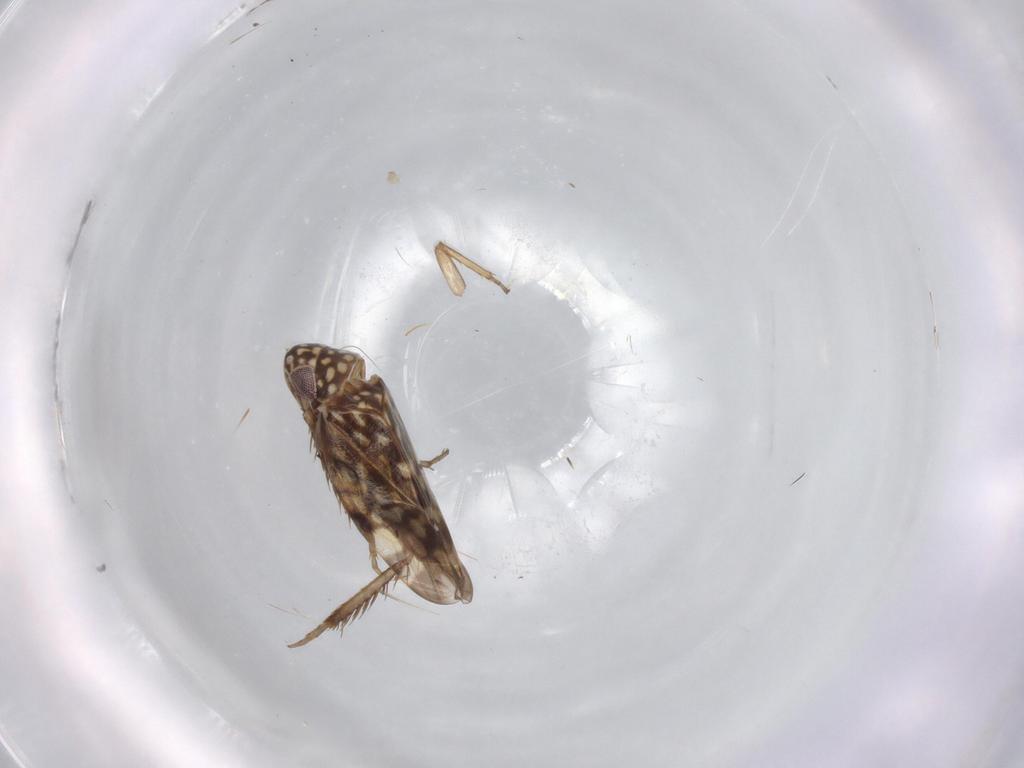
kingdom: Animalia
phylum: Arthropoda
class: Insecta
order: Hemiptera
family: Cicadellidae
